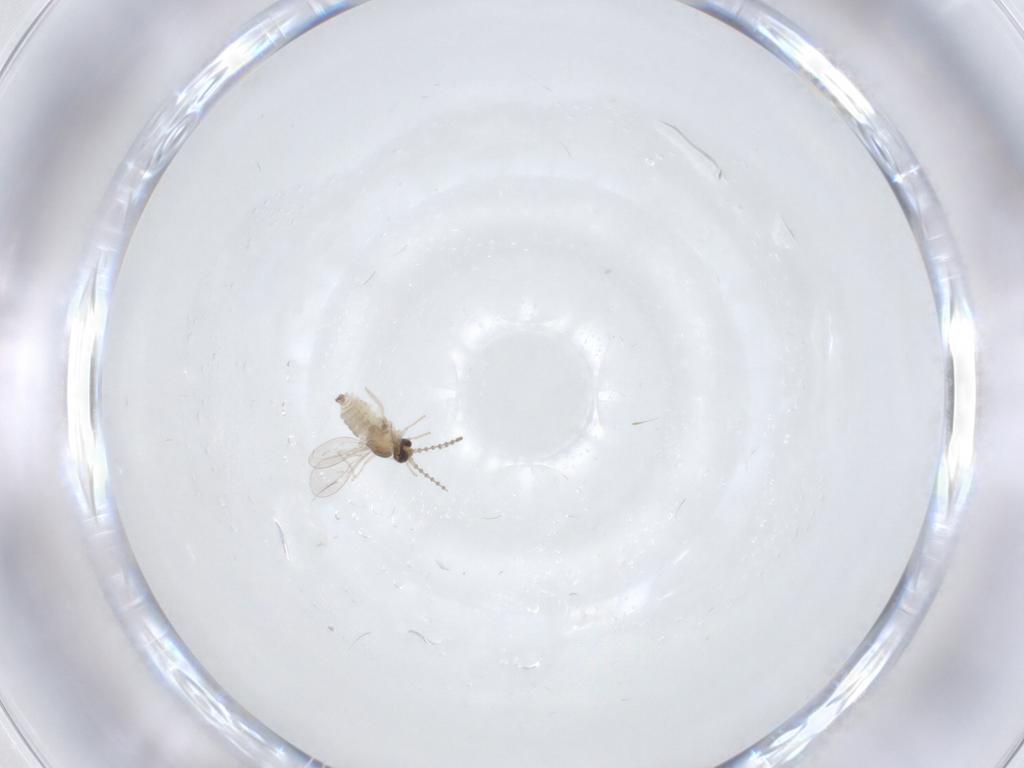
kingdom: Animalia
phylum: Arthropoda
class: Insecta
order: Diptera
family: Cecidomyiidae
